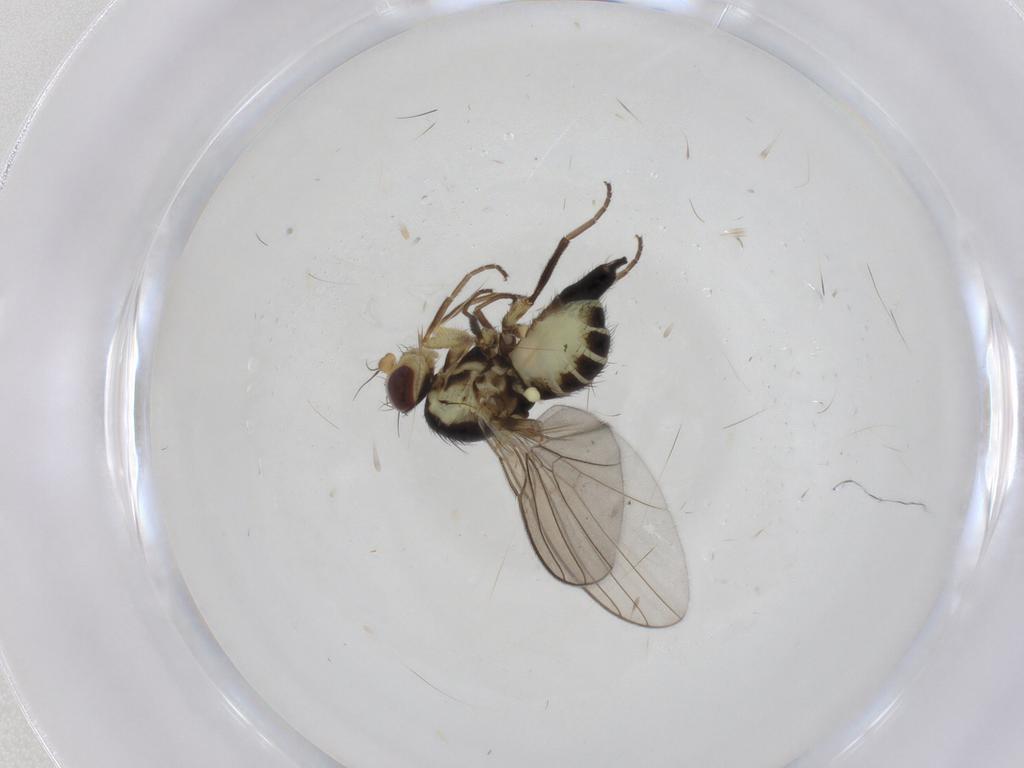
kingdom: Animalia
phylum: Arthropoda
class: Insecta
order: Diptera
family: Agromyzidae
